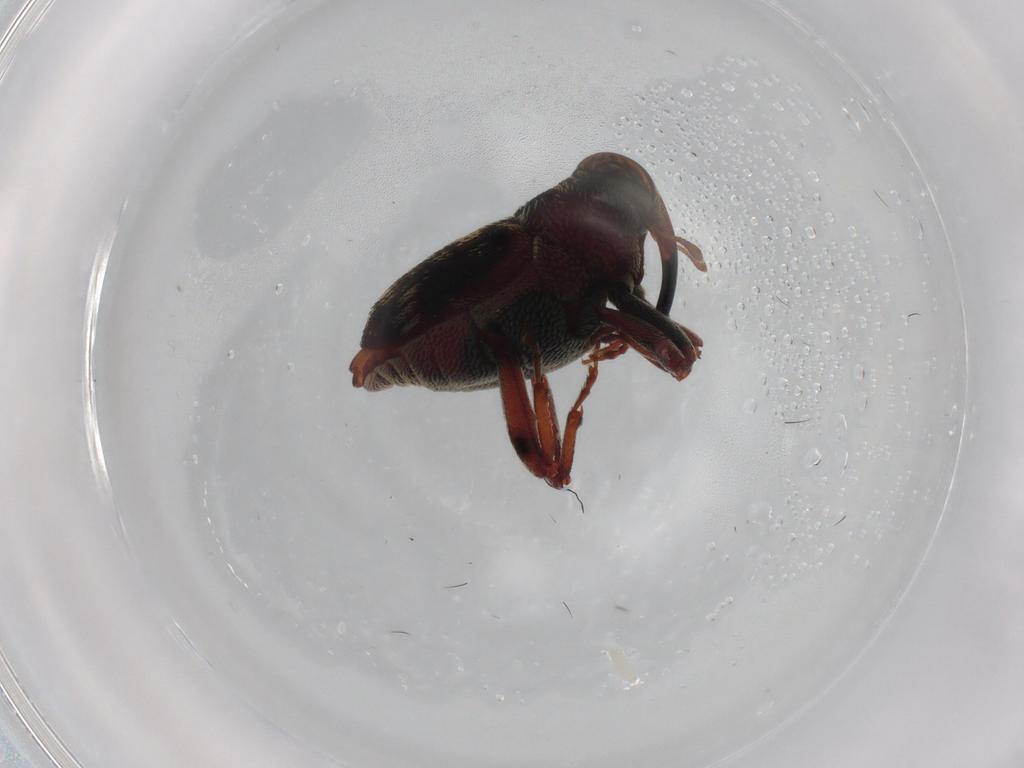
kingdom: Animalia
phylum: Arthropoda
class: Insecta
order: Coleoptera
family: Curculionidae
